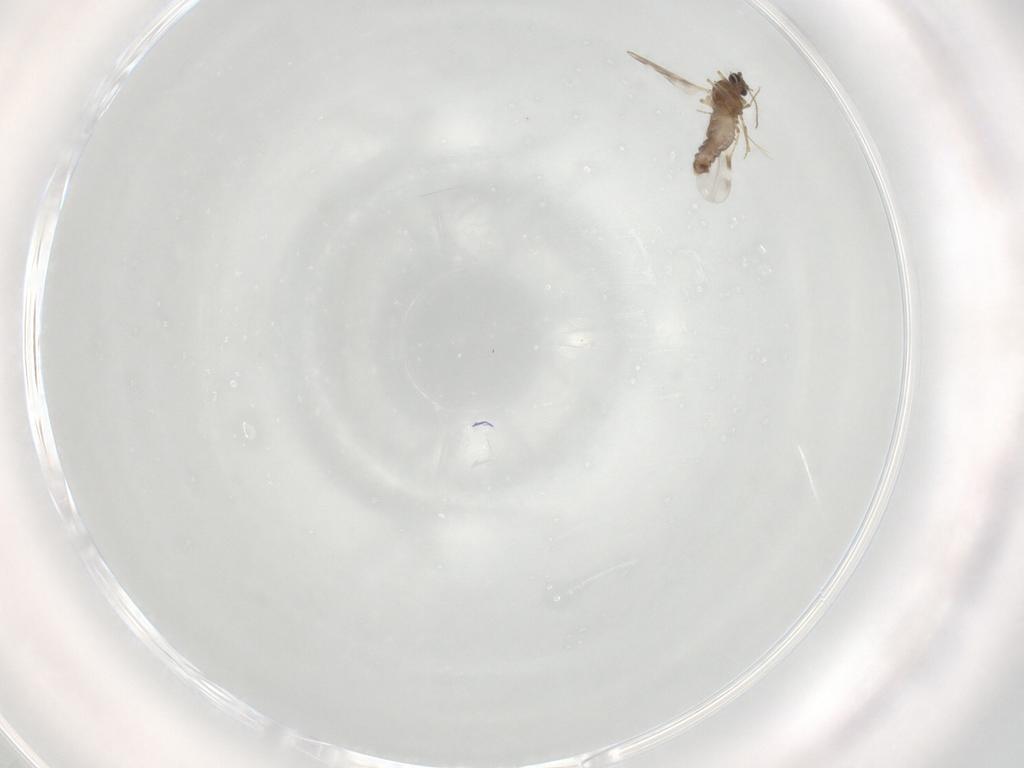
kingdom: Animalia
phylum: Arthropoda
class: Insecta
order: Diptera
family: Ceratopogonidae
